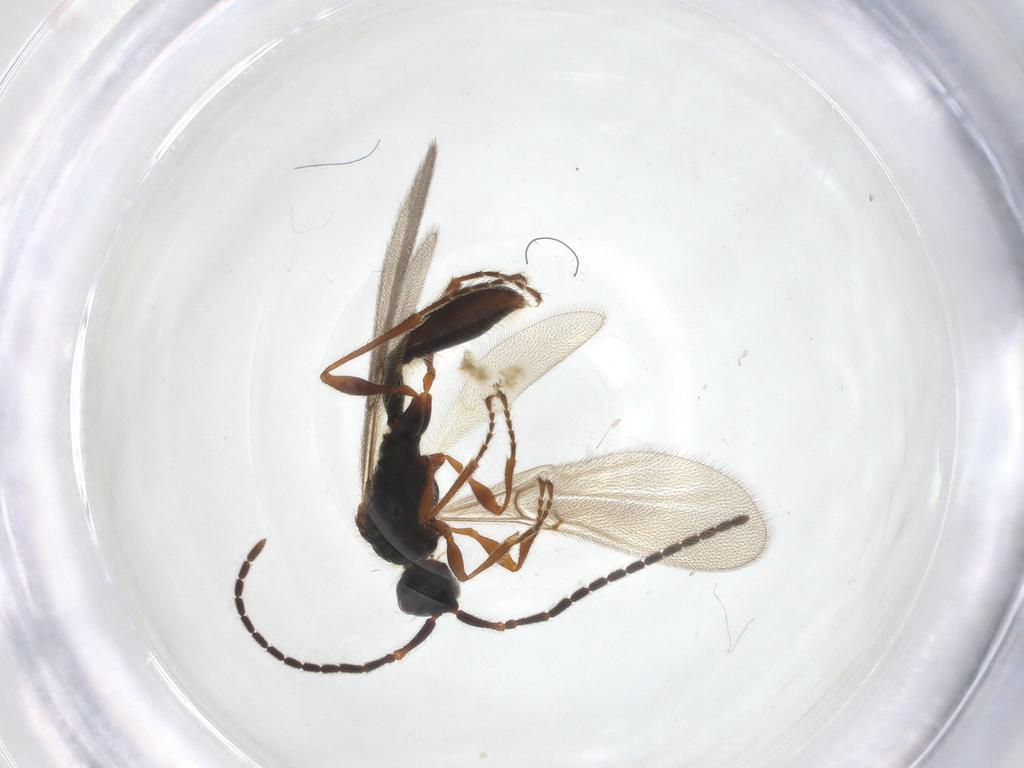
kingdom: Animalia
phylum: Arthropoda
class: Insecta
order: Hymenoptera
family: Diapriidae
